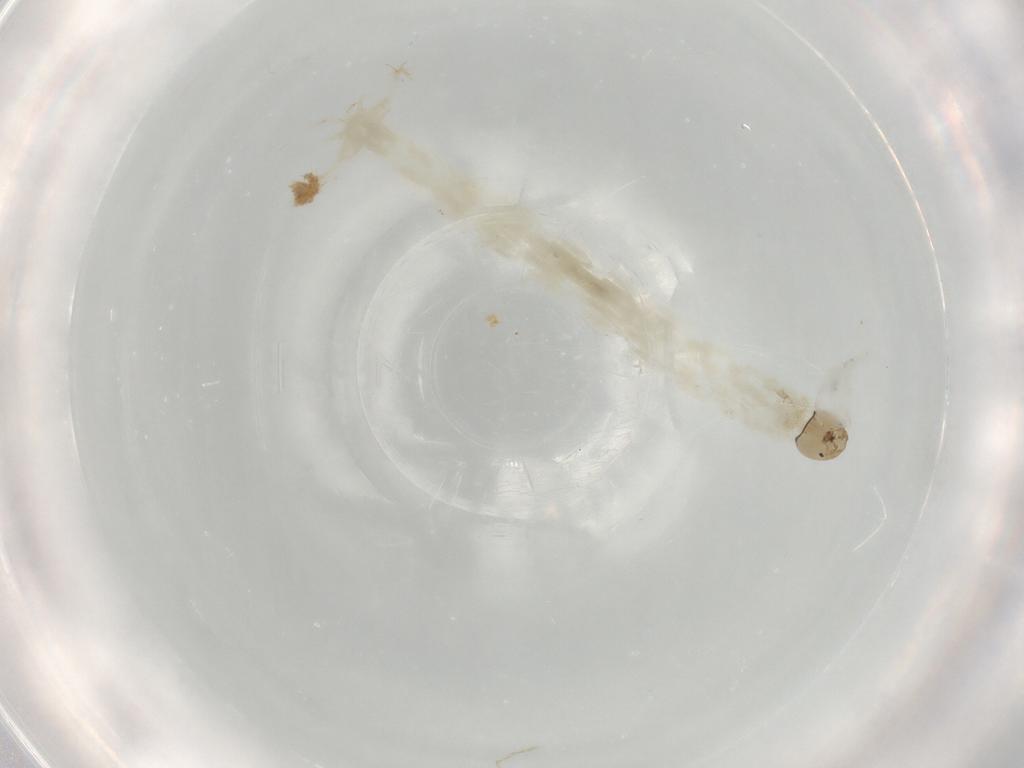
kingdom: Animalia
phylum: Arthropoda
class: Insecta
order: Diptera
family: Chironomidae
